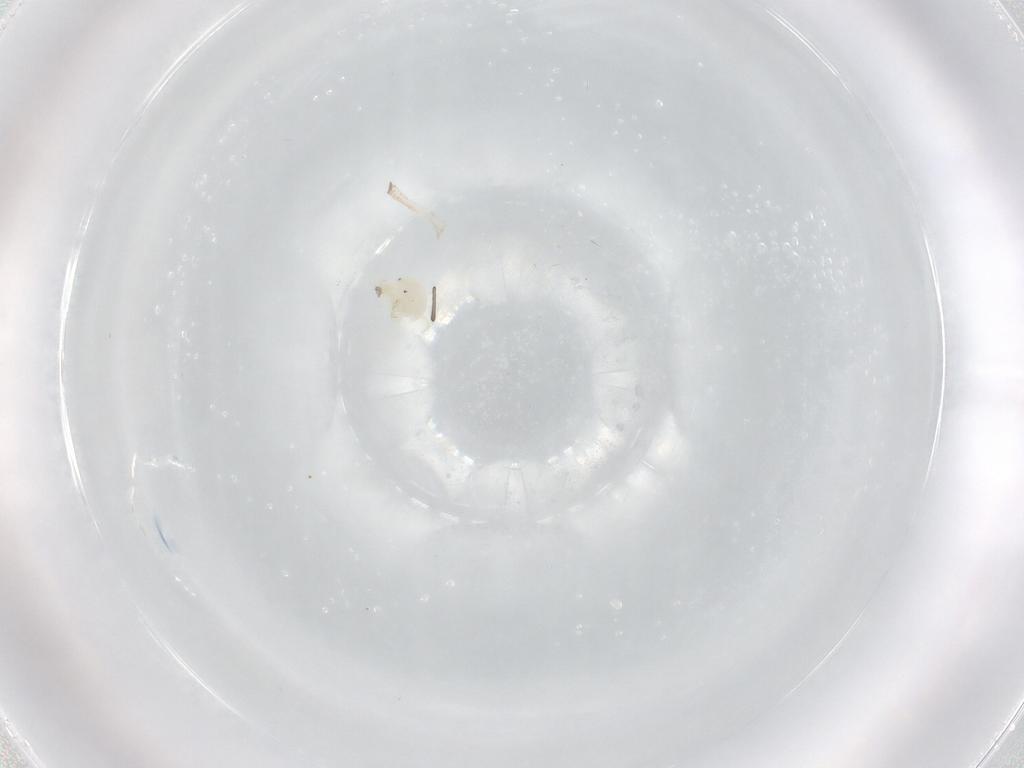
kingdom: Animalia
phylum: Arthropoda
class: Arachnida
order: Trombidiformes
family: Sperchontidae
